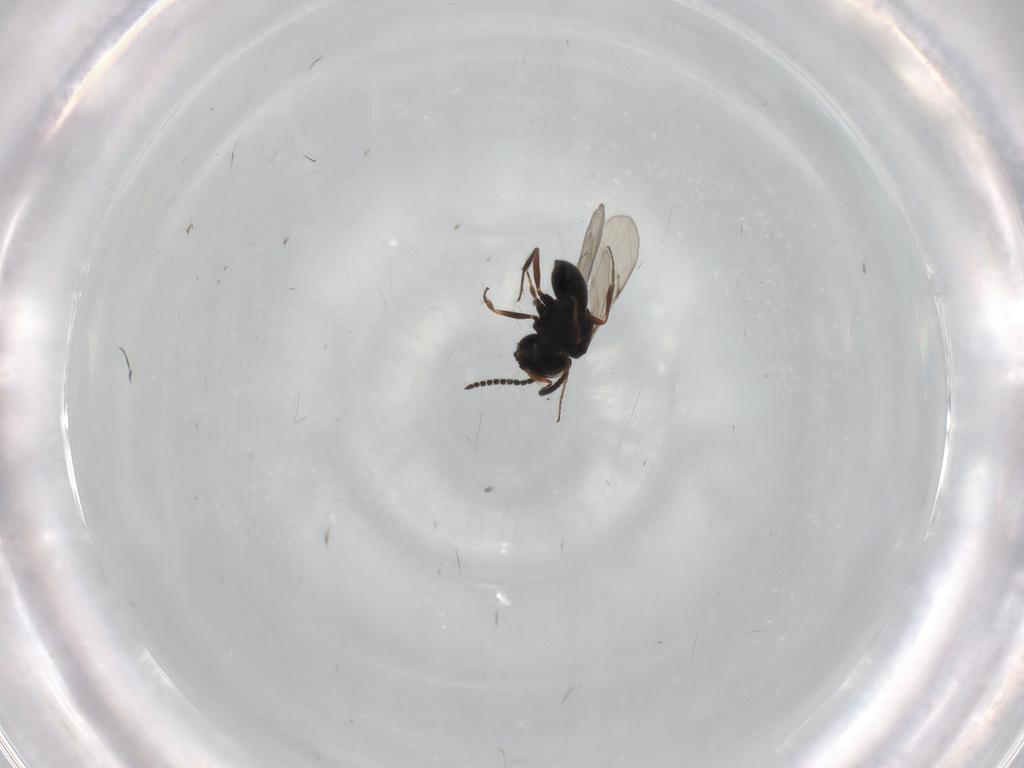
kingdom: Animalia
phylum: Arthropoda
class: Insecta
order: Hymenoptera
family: Scelionidae
